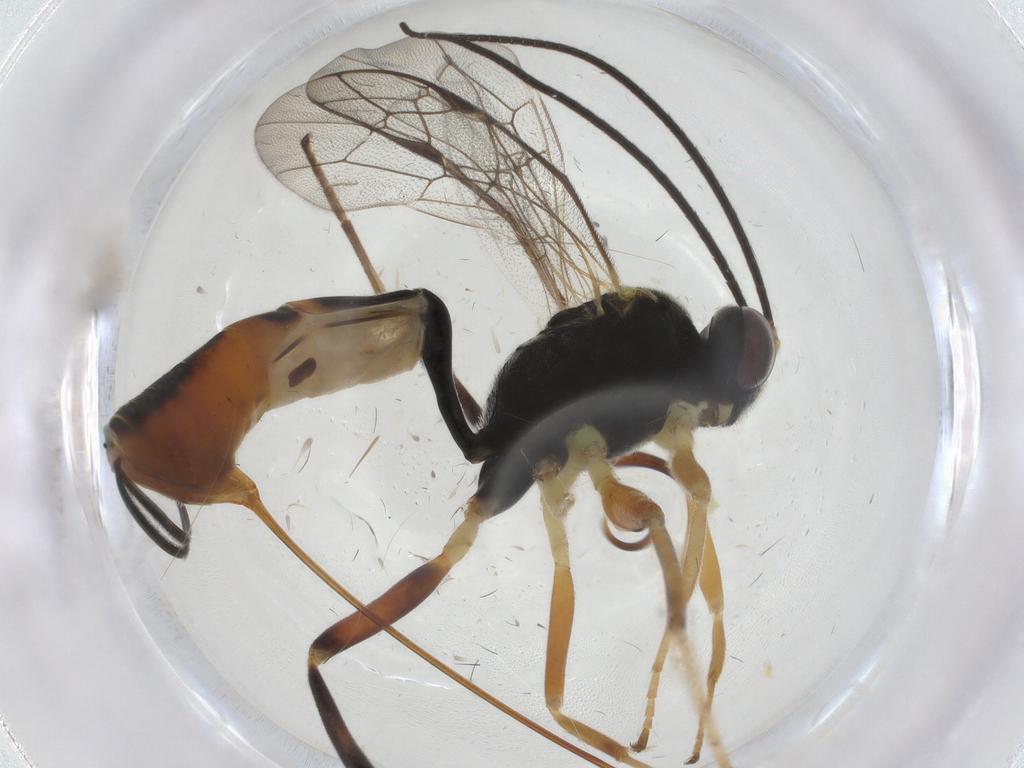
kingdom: Animalia
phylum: Arthropoda
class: Insecta
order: Hymenoptera
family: Ichneumonidae
